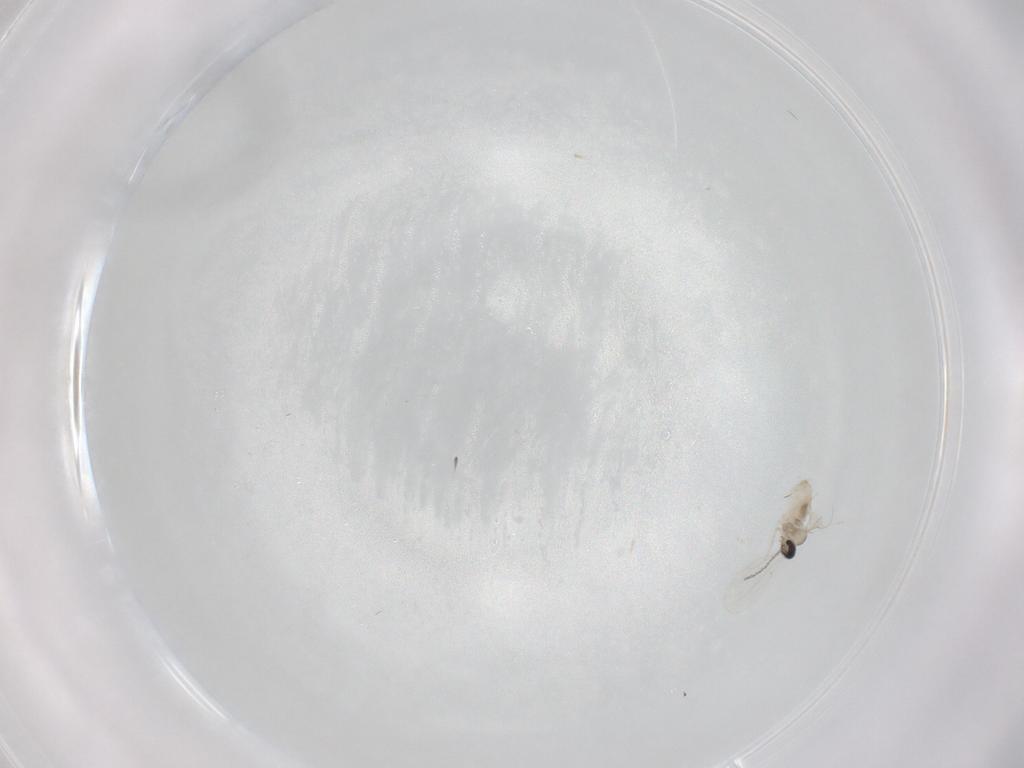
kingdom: Animalia
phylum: Arthropoda
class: Insecta
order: Diptera
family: Cecidomyiidae
